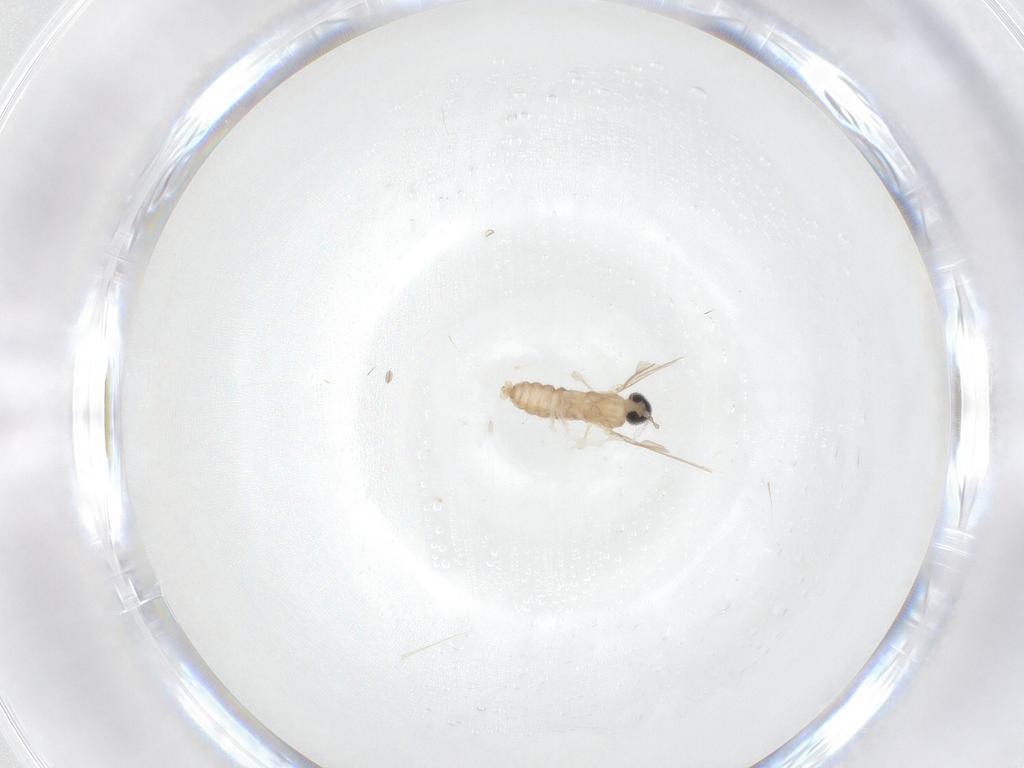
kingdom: Animalia
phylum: Arthropoda
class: Insecta
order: Diptera
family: Cecidomyiidae
